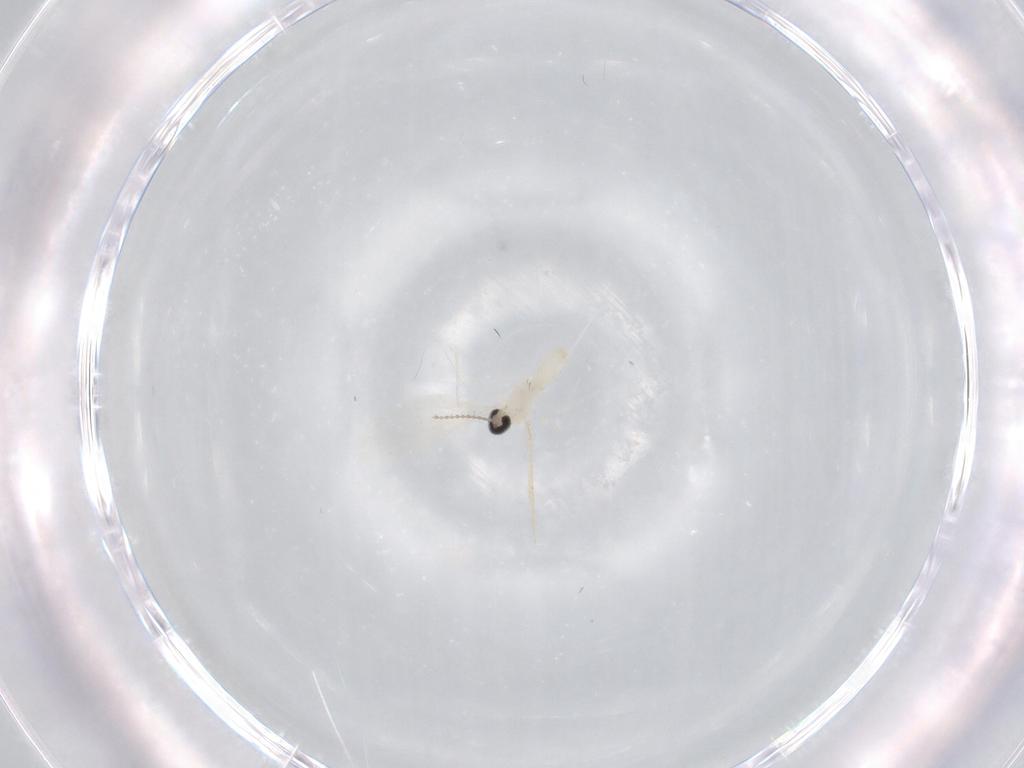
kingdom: Animalia
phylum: Arthropoda
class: Insecta
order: Diptera
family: Cecidomyiidae
